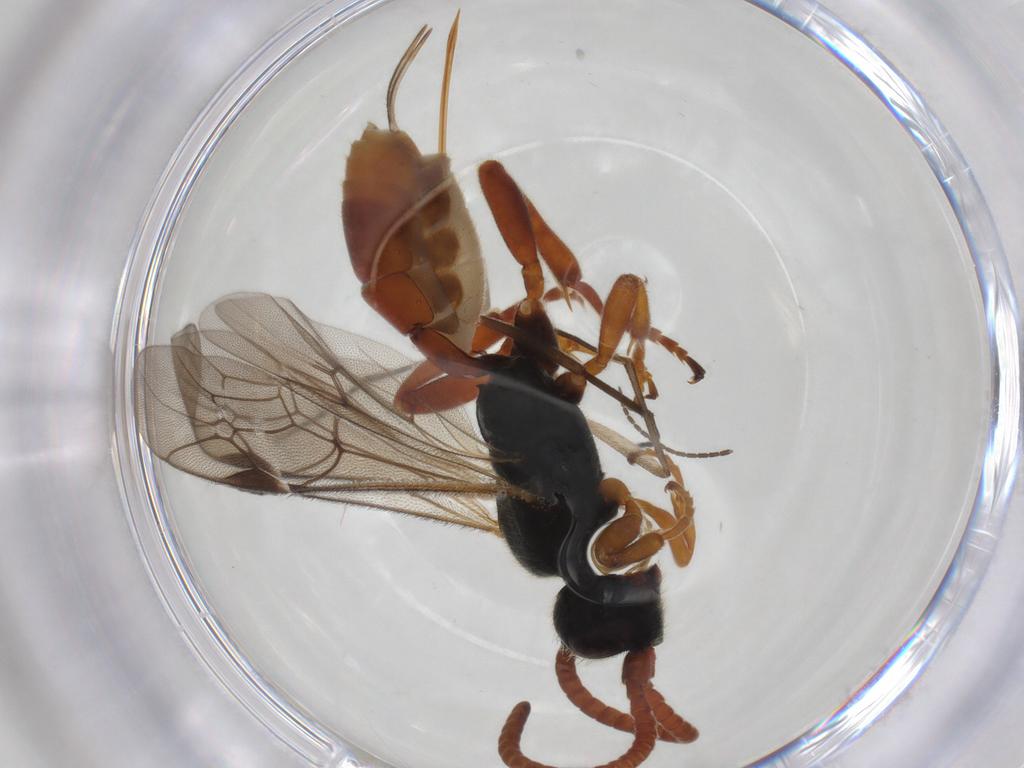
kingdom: Animalia
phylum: Arthropoda
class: Insecta
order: Hymenoptera
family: Ichneumonidae
